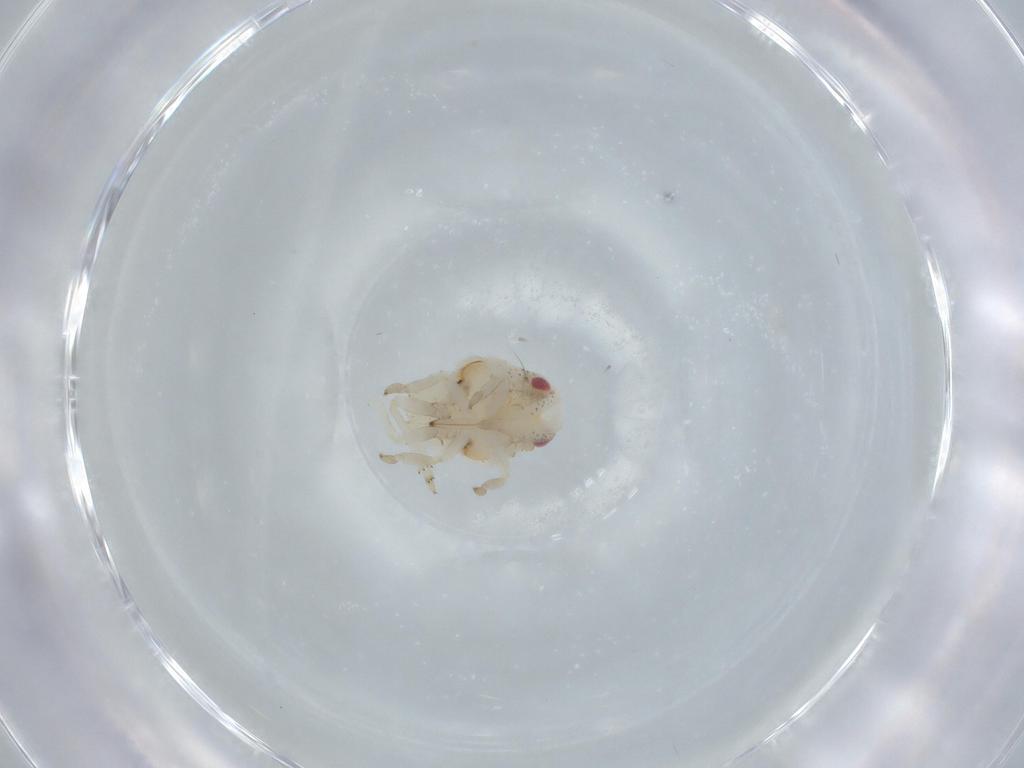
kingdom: Animalia
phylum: Arthropoda
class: Insecta
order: Hemiptera
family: Acanaloniidae
